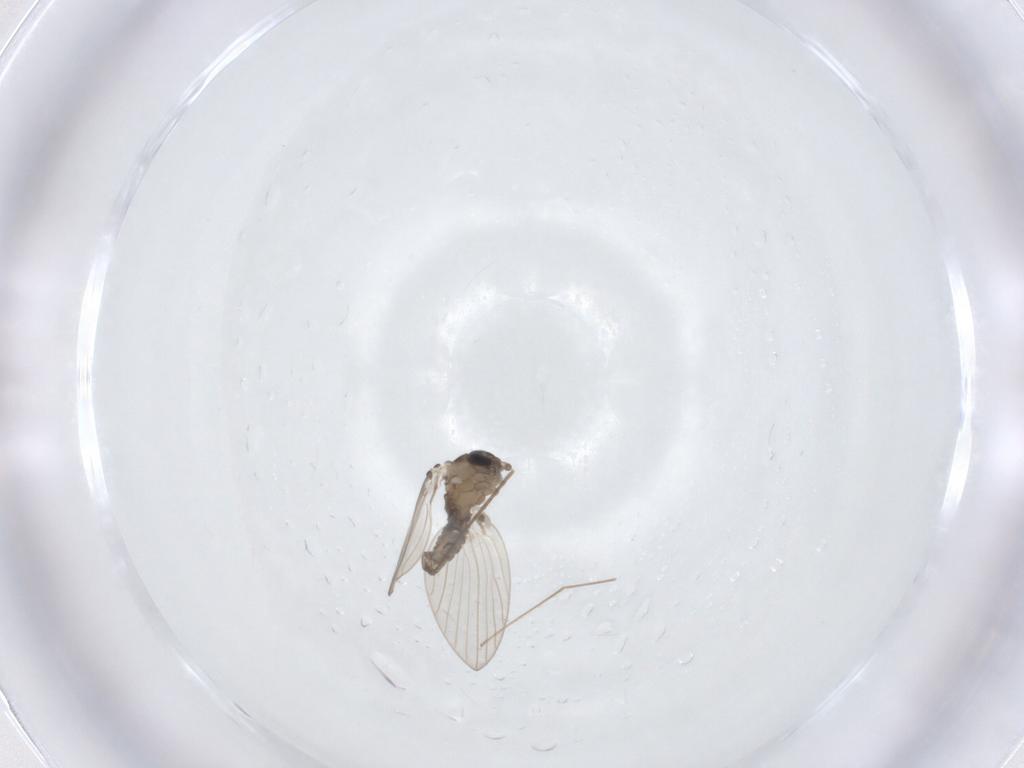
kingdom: Animalia
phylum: Arthropoda
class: Insecta
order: Diptera
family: Psychodidae
